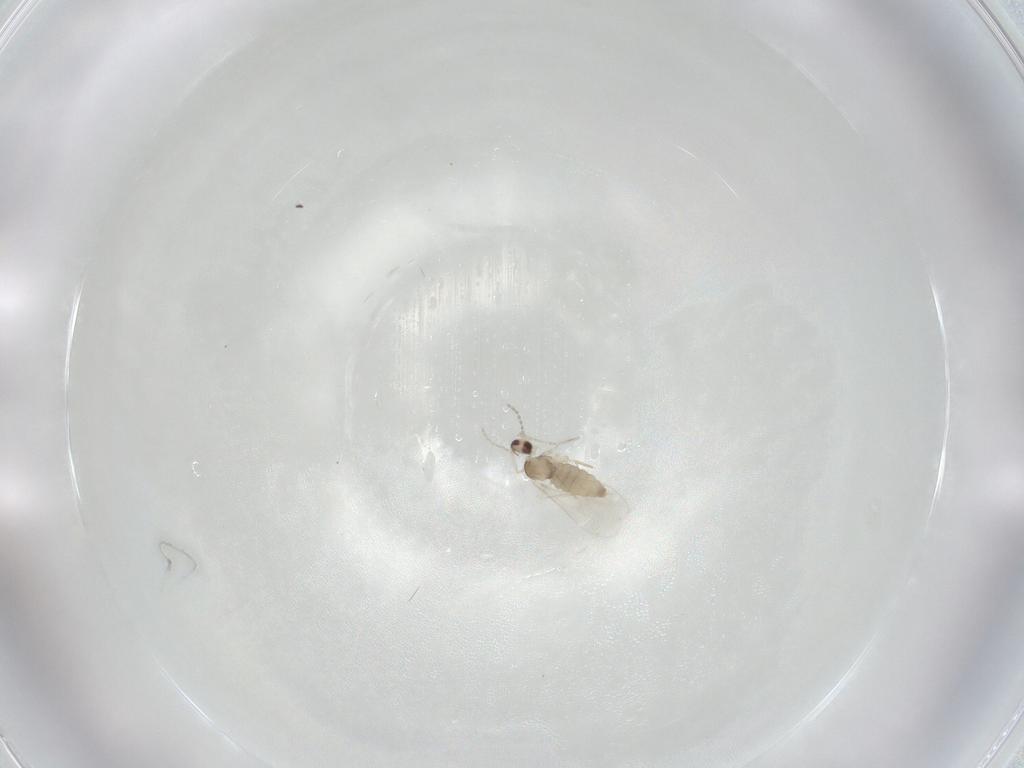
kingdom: Animalia
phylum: Arthropoda
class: Insecta
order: Diptera
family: Cecidomyiidae
